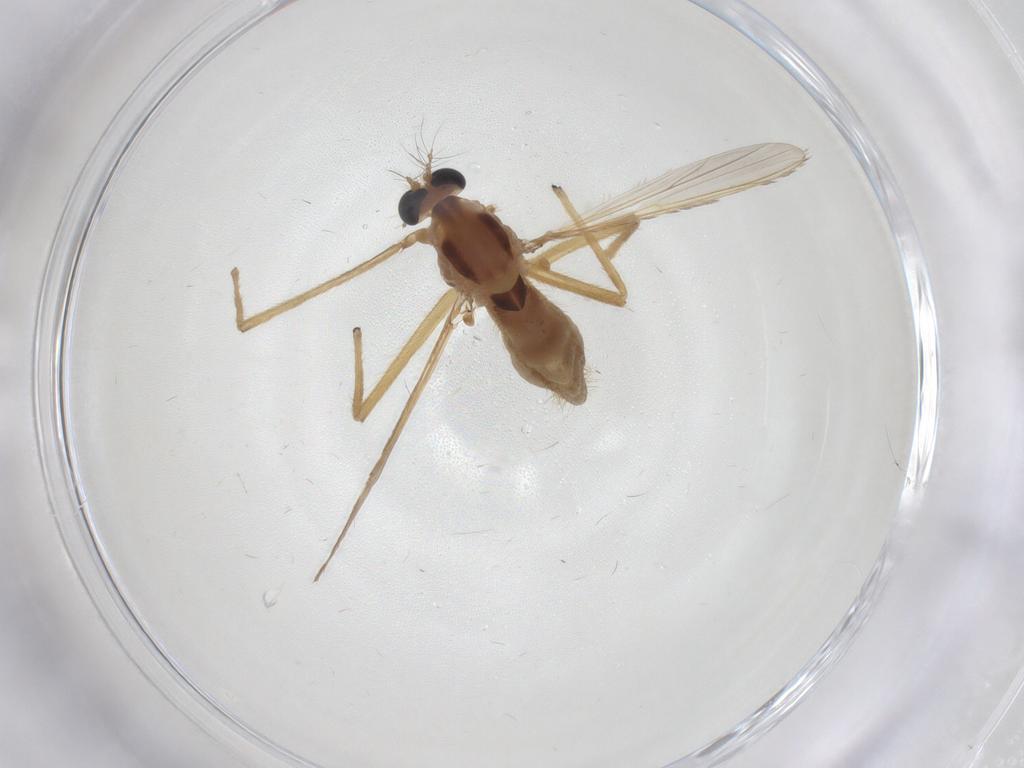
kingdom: Animalia
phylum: Arthropoda
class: Insecta
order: Diptera
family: Chironomidae
